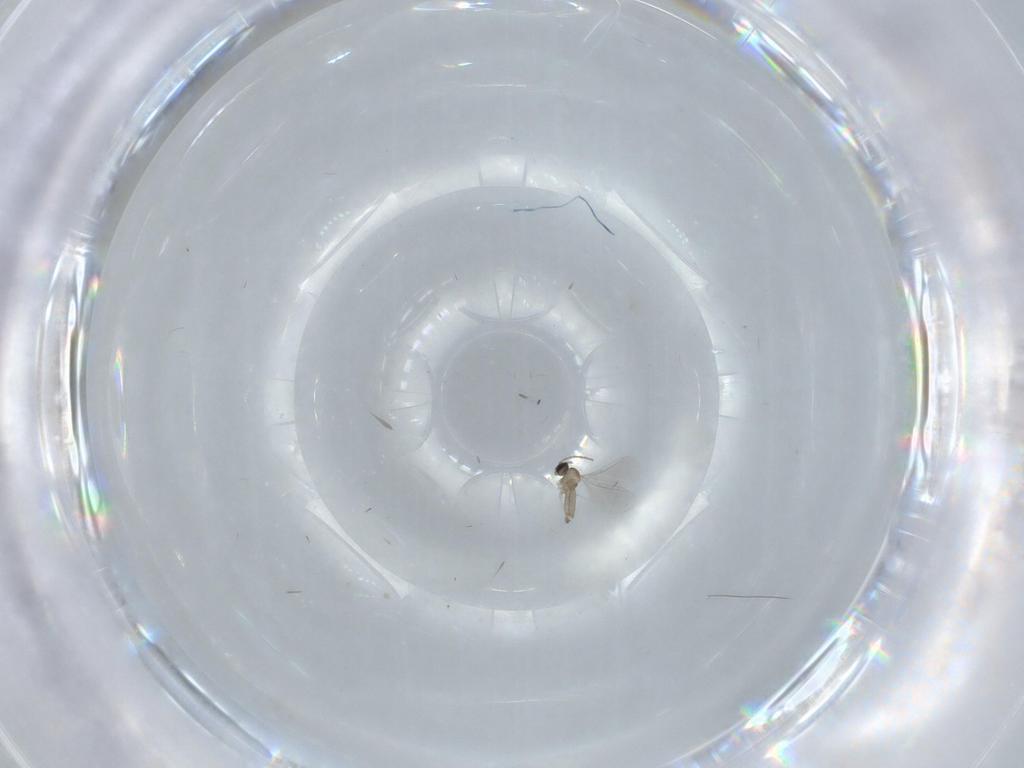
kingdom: Animalia
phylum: Arthropoda
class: Insecta
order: Diptera
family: Cecidomyiidae
